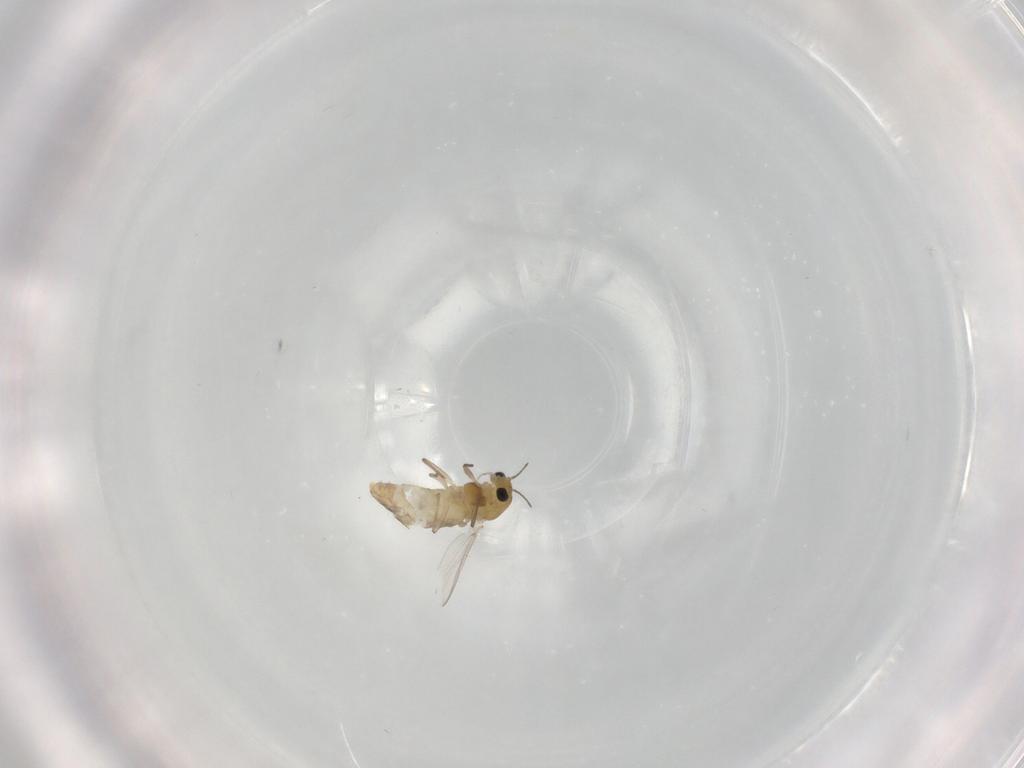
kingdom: Animalia
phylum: Arthropoda
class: Insecta
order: Diptera
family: Chironomidae
